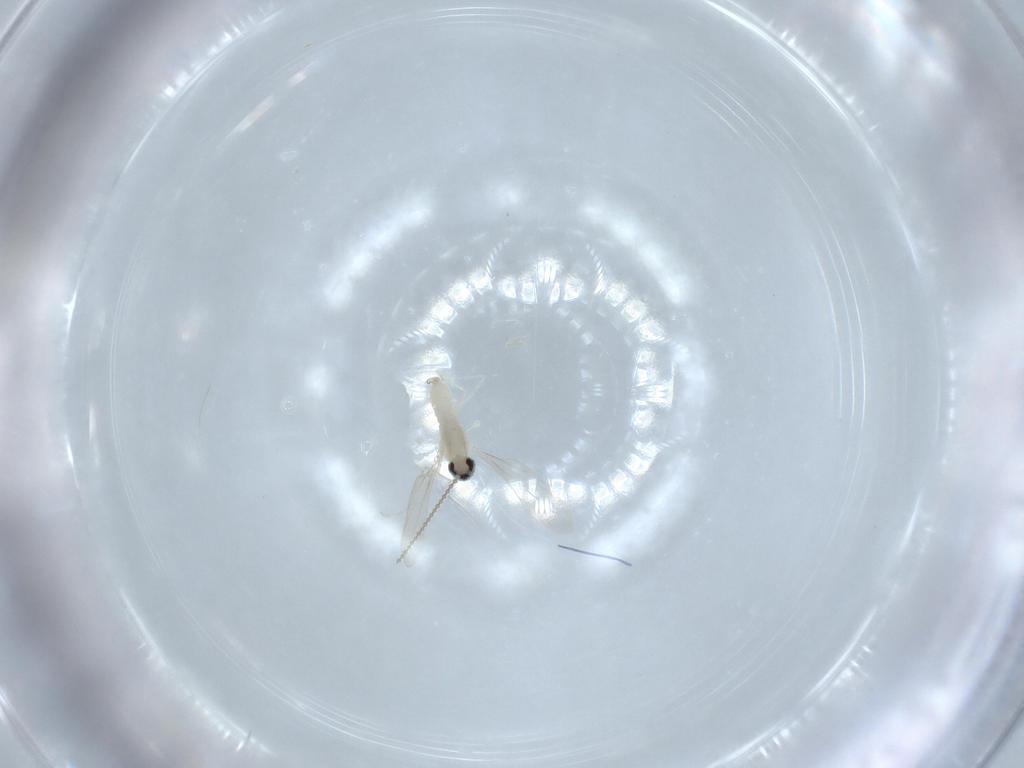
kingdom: Animalia
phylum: Arthropoda
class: Insecta
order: Diptera
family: Cecidomyiidae
